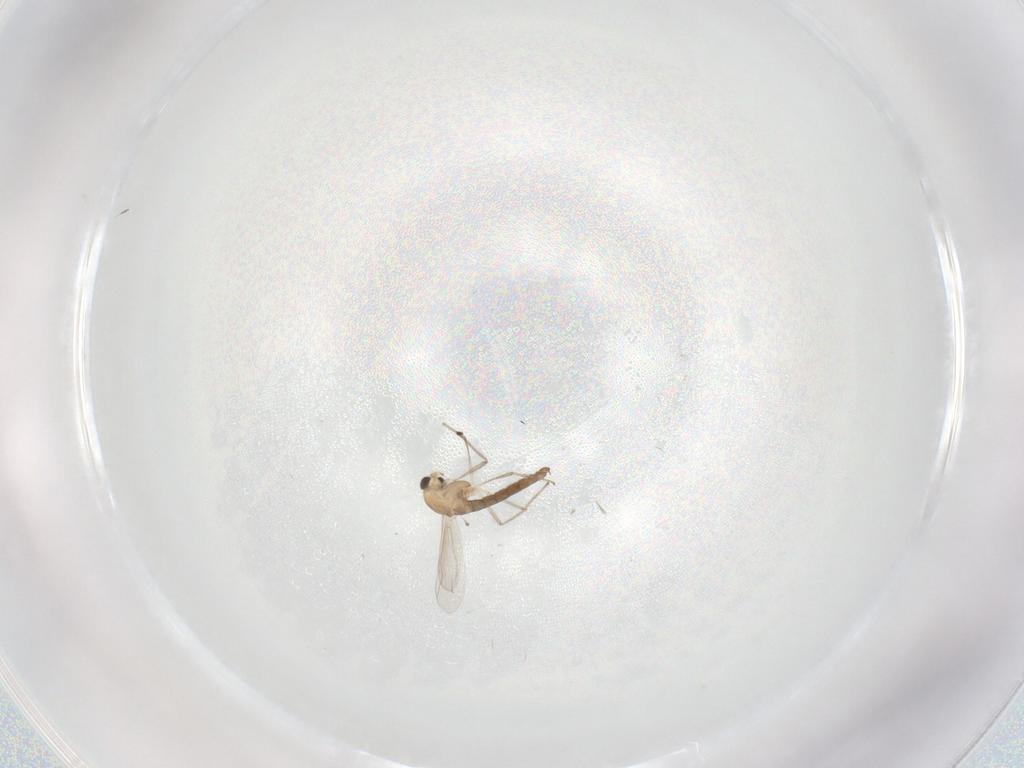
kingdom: Animalia
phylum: Arthropoda
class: Insecta
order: Diptera
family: Chironomidae
